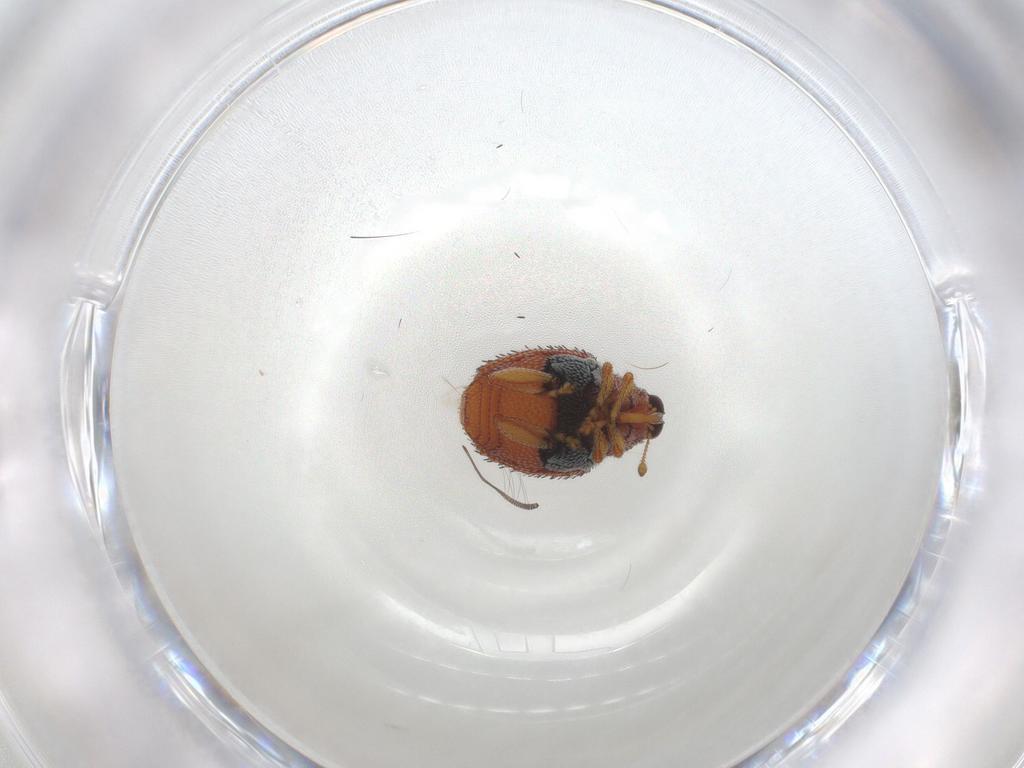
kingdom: Animalia
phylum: Arthropoda
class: Insecta
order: Coleoptera
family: Curculionidae
